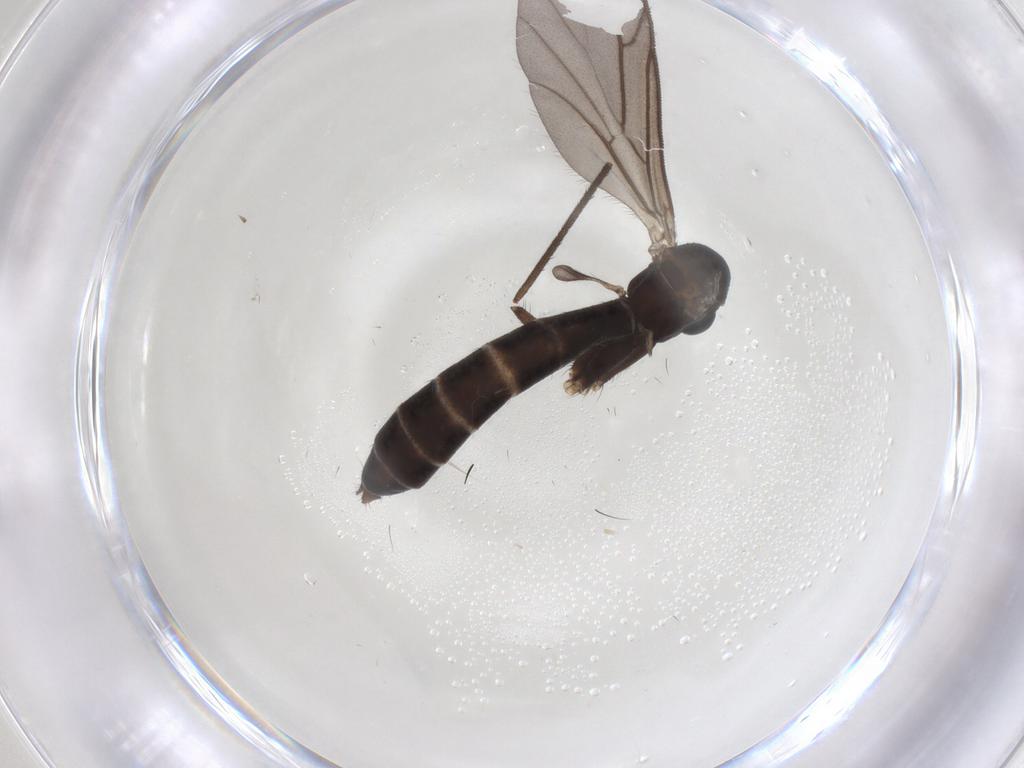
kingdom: Animalia
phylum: Arthropoda
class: Insecta
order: Diptera
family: Ditomyiidae
